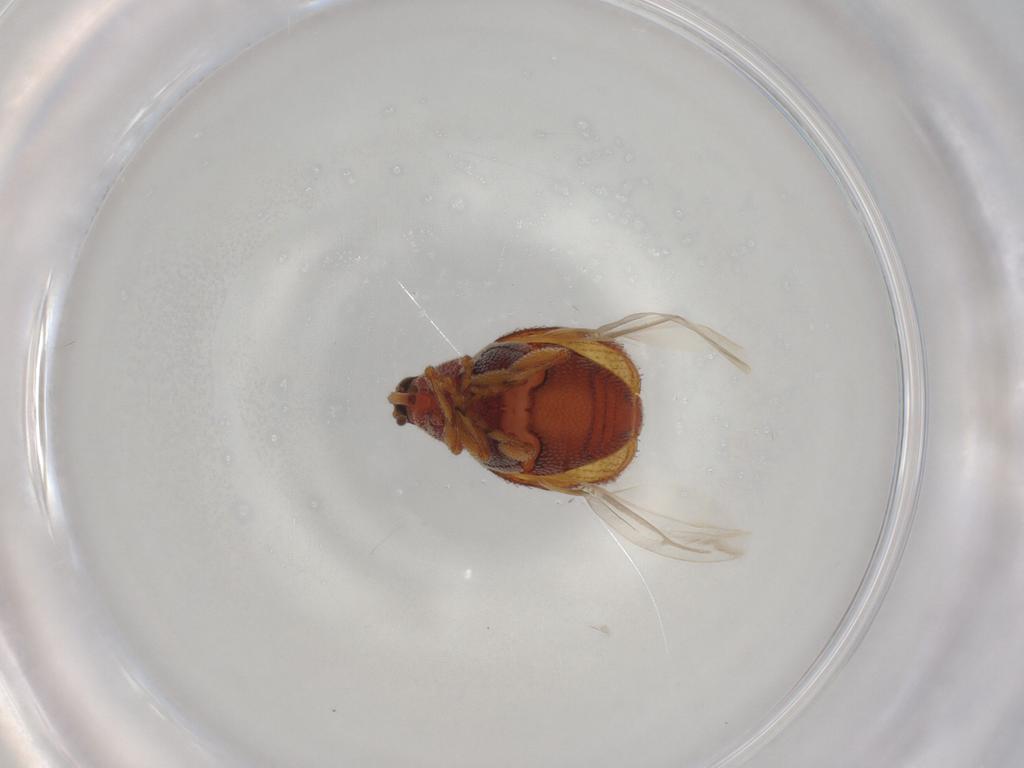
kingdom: Animalia
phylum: Arthropoda
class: Insecta
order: Coleoptera
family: Curculionidae
